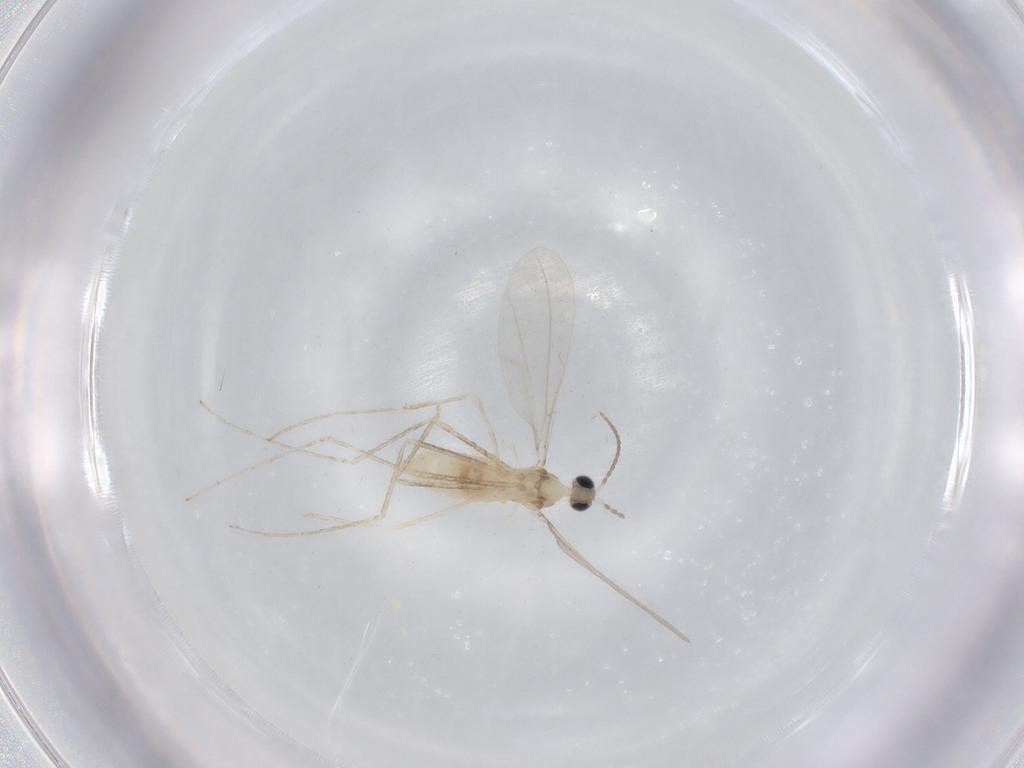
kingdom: Animalia
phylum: Arthropoda
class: Insecta
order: Diptera
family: Cecidomyiidae
